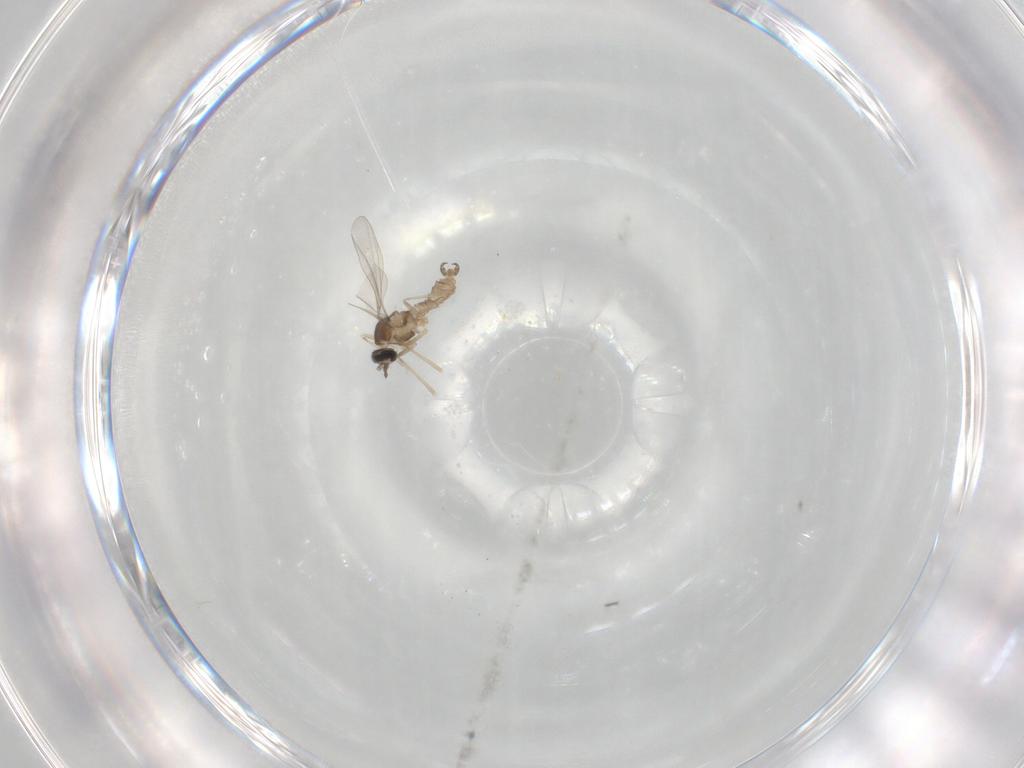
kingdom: Animalia
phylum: Arthropoda
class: Insecta
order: Diptera
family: Cecidomyiidae
